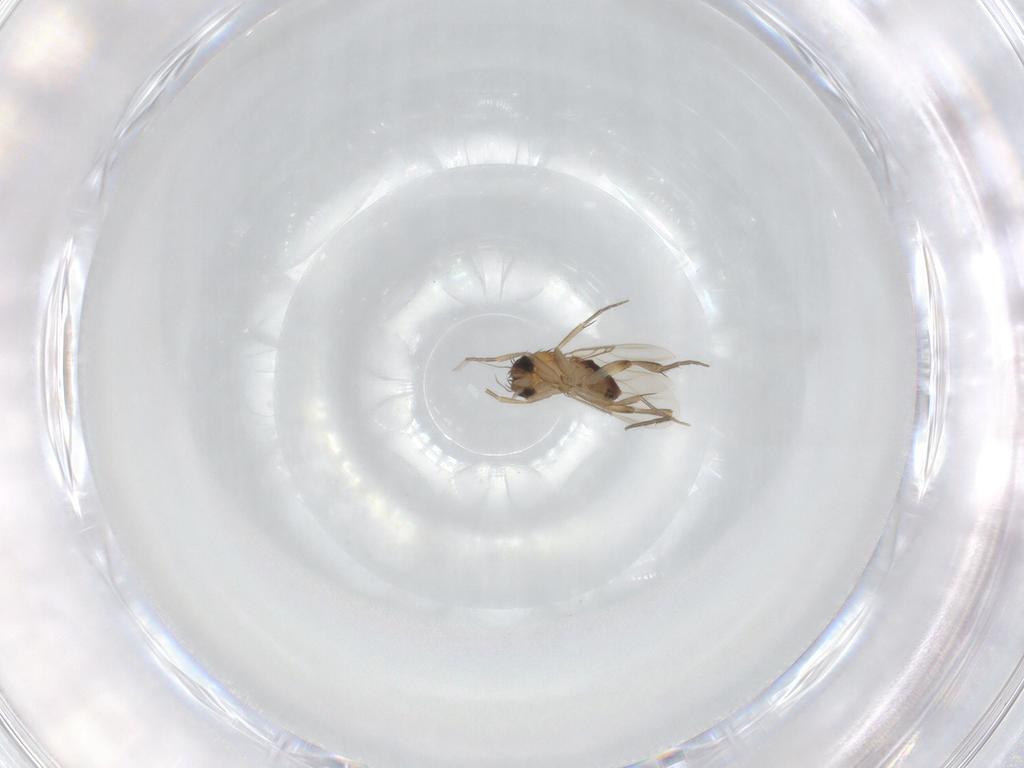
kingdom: Animalia
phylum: Arthropoda
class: Insecta
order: Diptera
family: Phoridae
